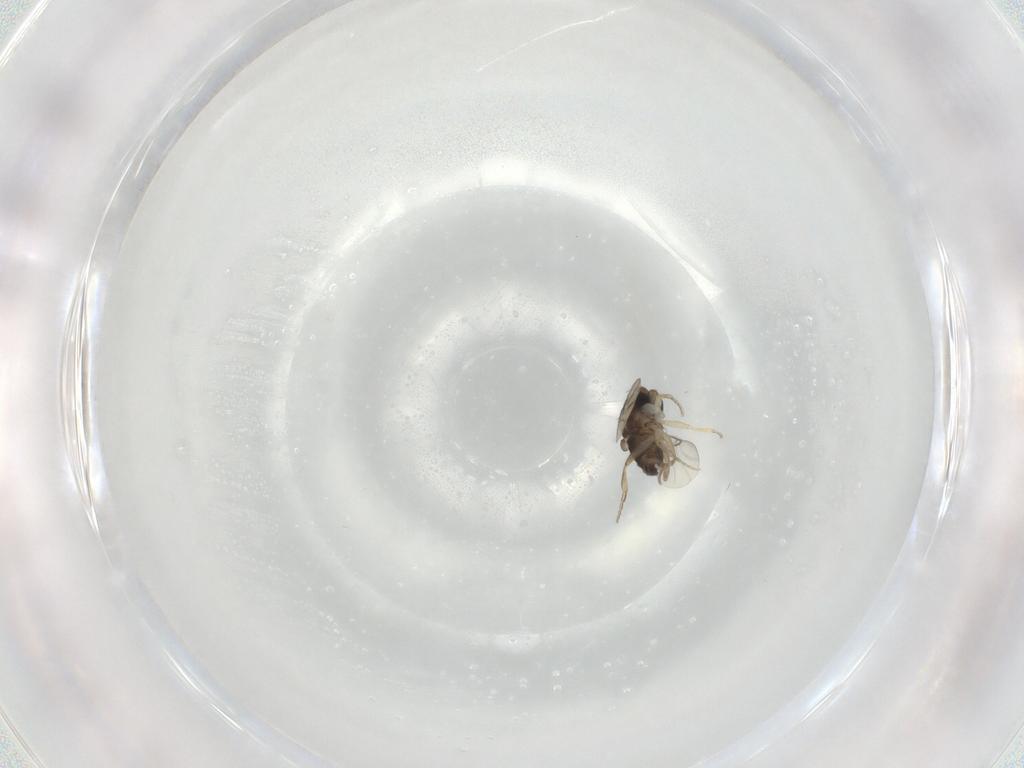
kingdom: Animalia
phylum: Arthropoda
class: Insecta
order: Diptera
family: Phoridae
